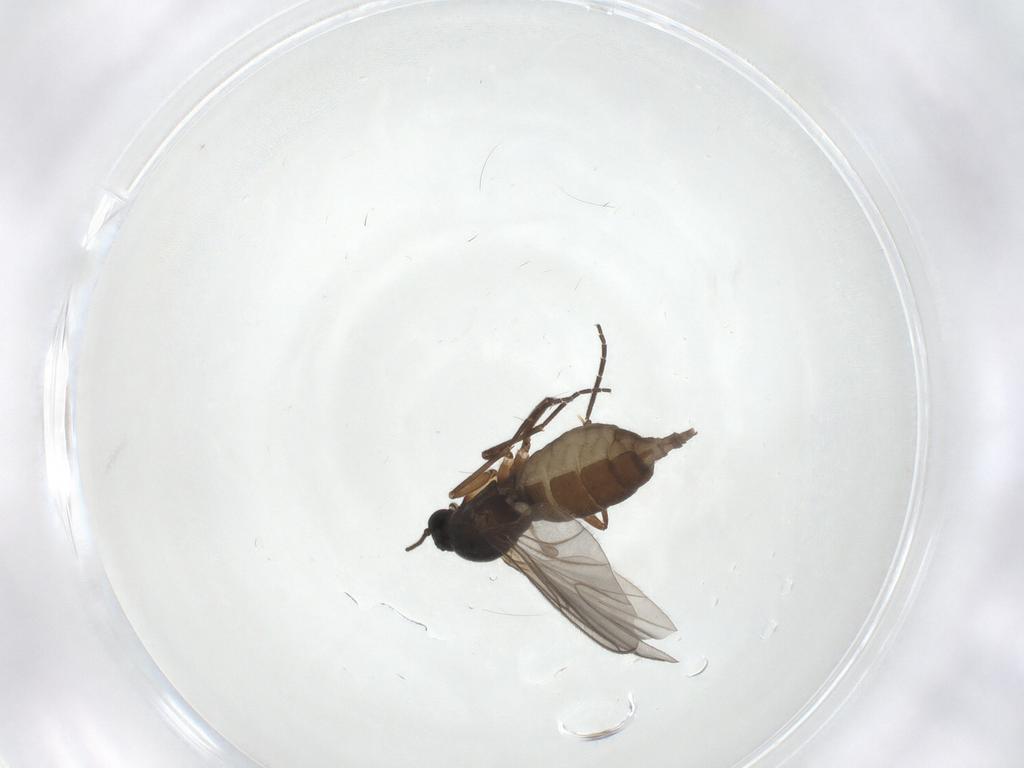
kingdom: Animalia
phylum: Arthropoda
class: Insecta
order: Diptera
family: Sciaridae
